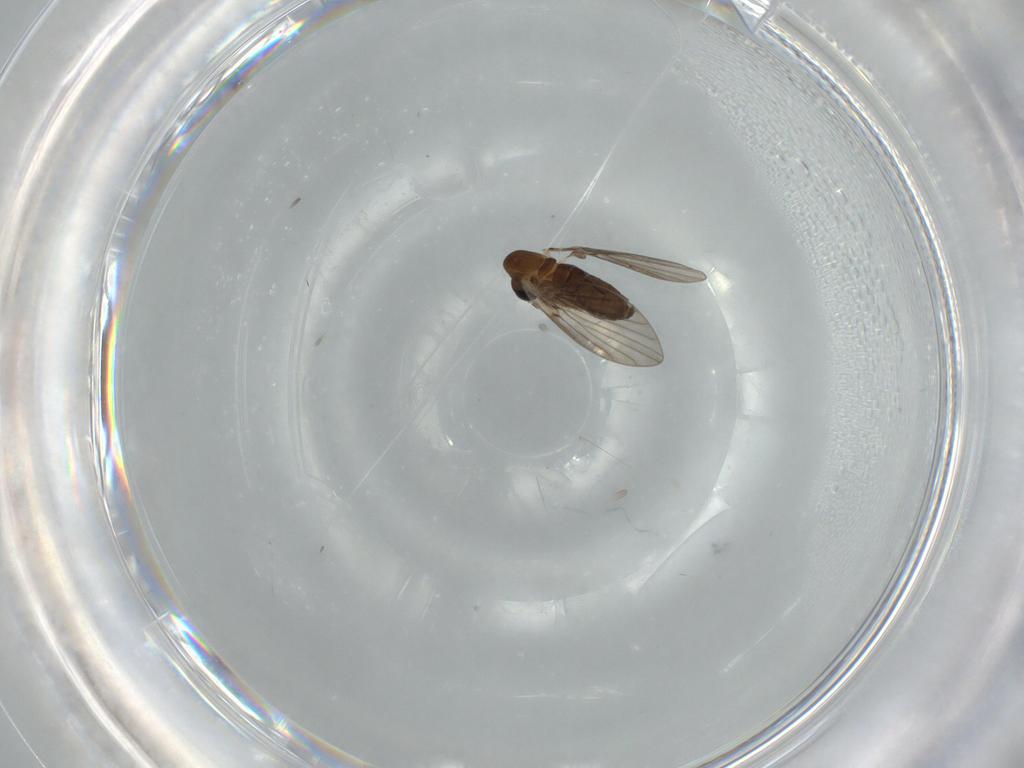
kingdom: Animalia
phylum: Arthropoda
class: Insecta
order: Diptera
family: Psychodidae
